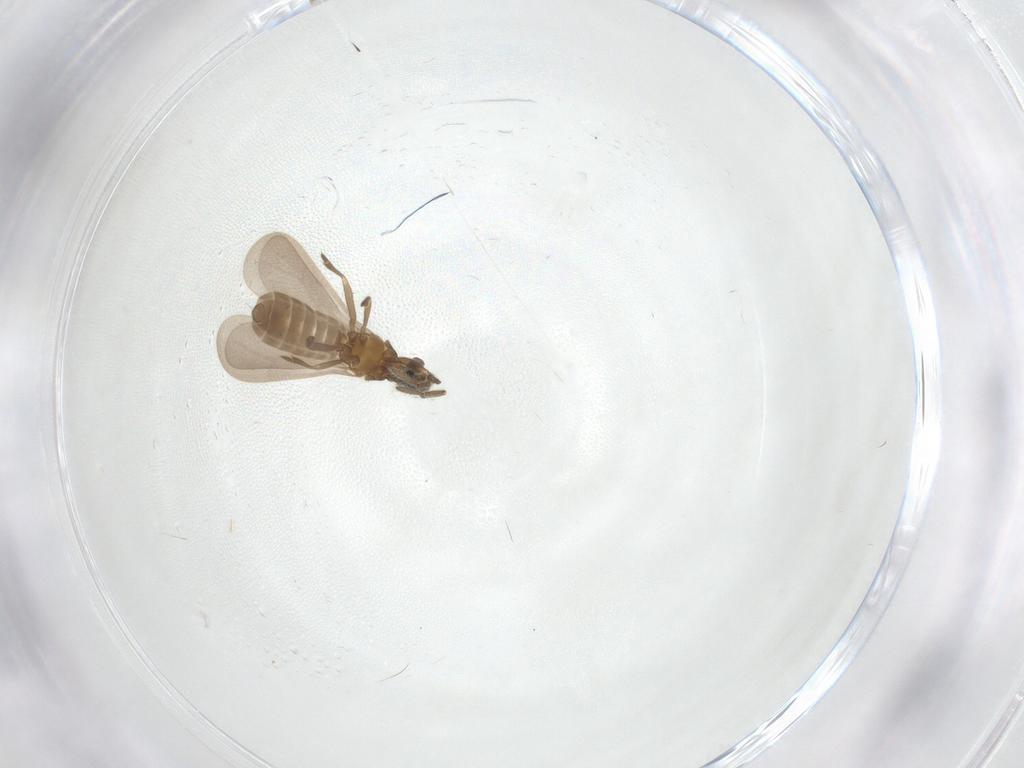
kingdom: Animalia
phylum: Arthropoda
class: Insecta
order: Hemiptera
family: Enicocephalidae
